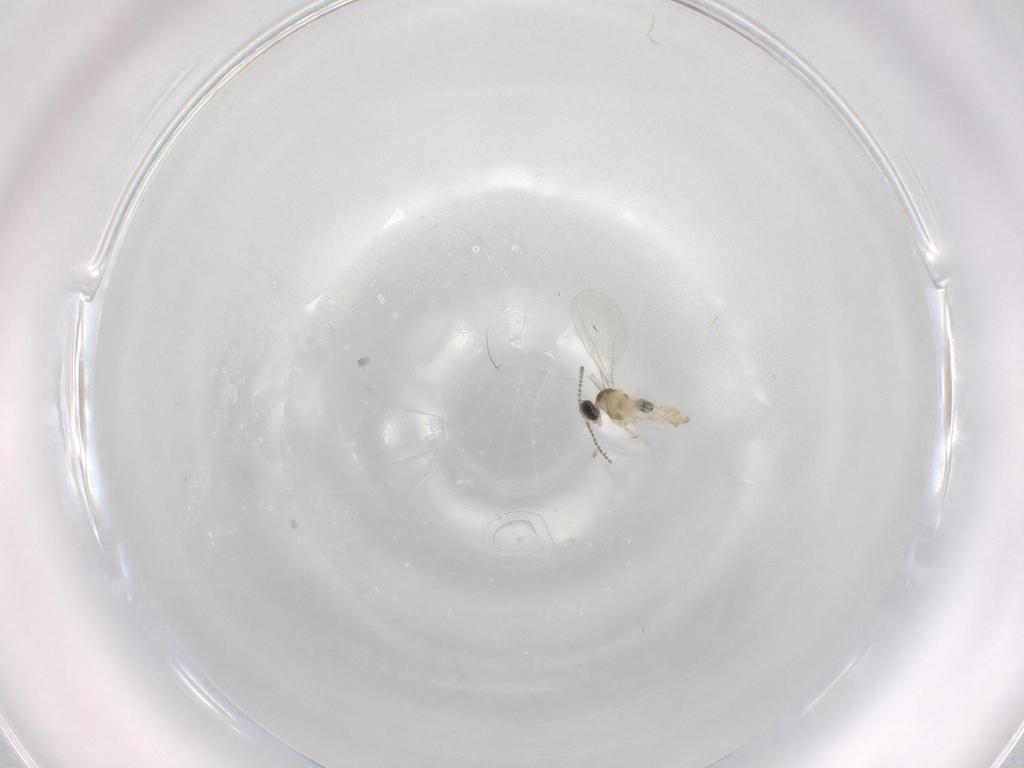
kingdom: Animalia
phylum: Arthropoda
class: Insecta
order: Diptera
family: Cecidomyiidae
